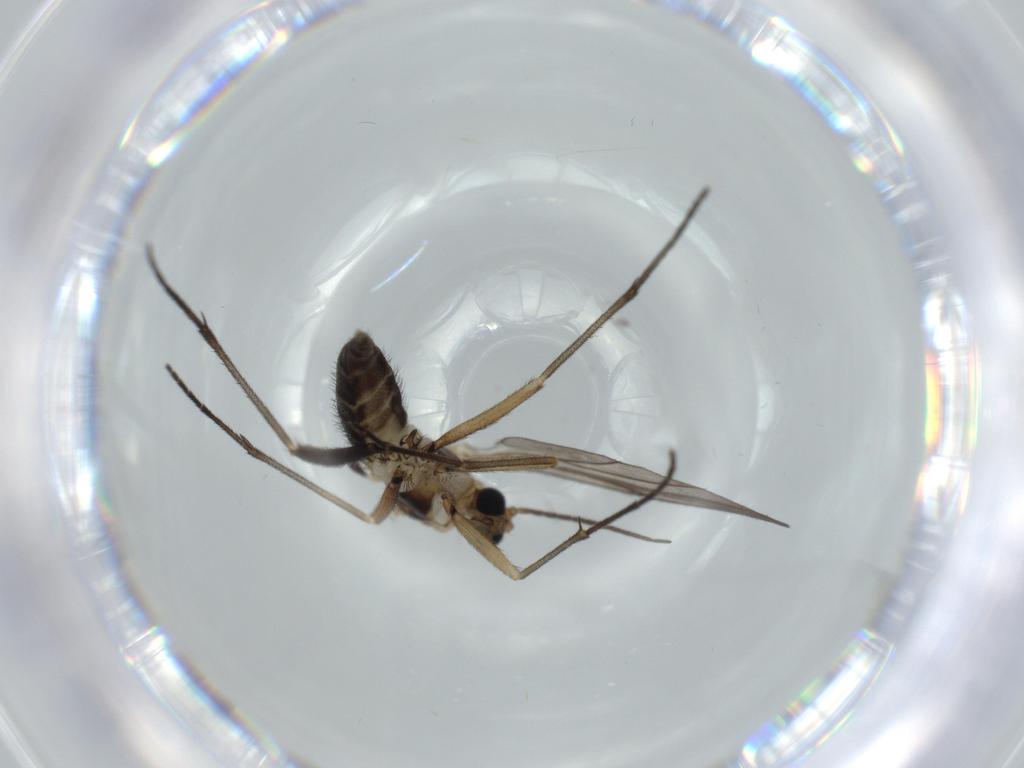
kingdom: Animalia
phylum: Arthropoda
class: Insecta
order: Diptera
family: Sciaridae
